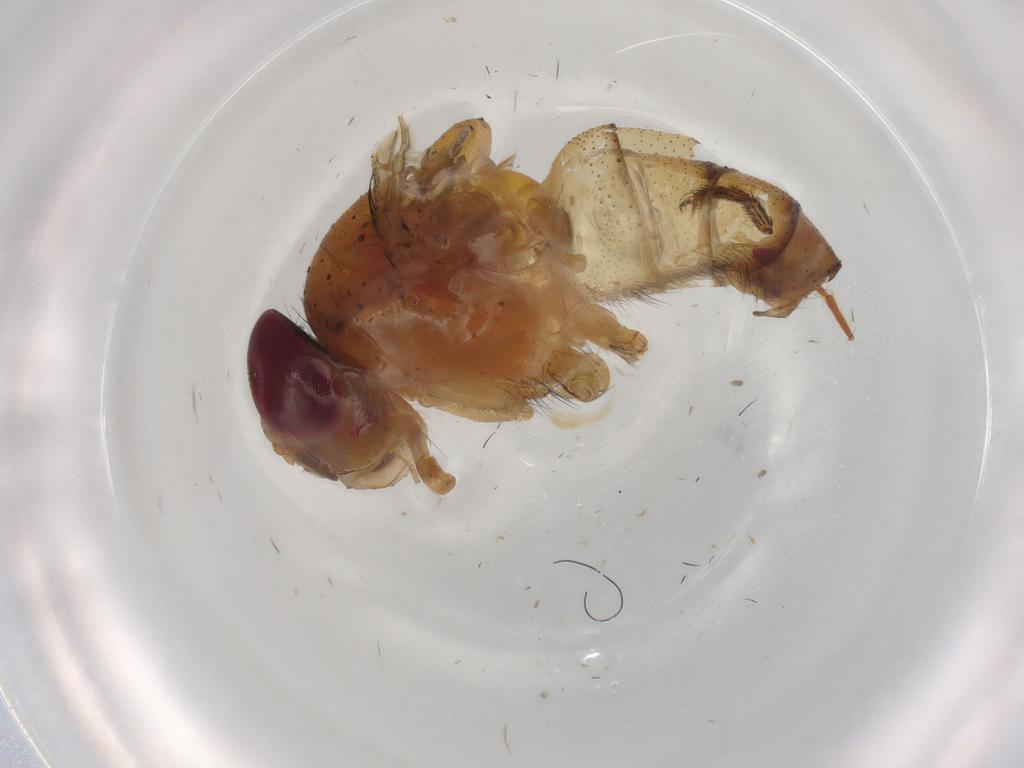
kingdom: Animalia
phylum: Arthropoda
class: Insecta
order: Diptera
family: Calliphoridae
